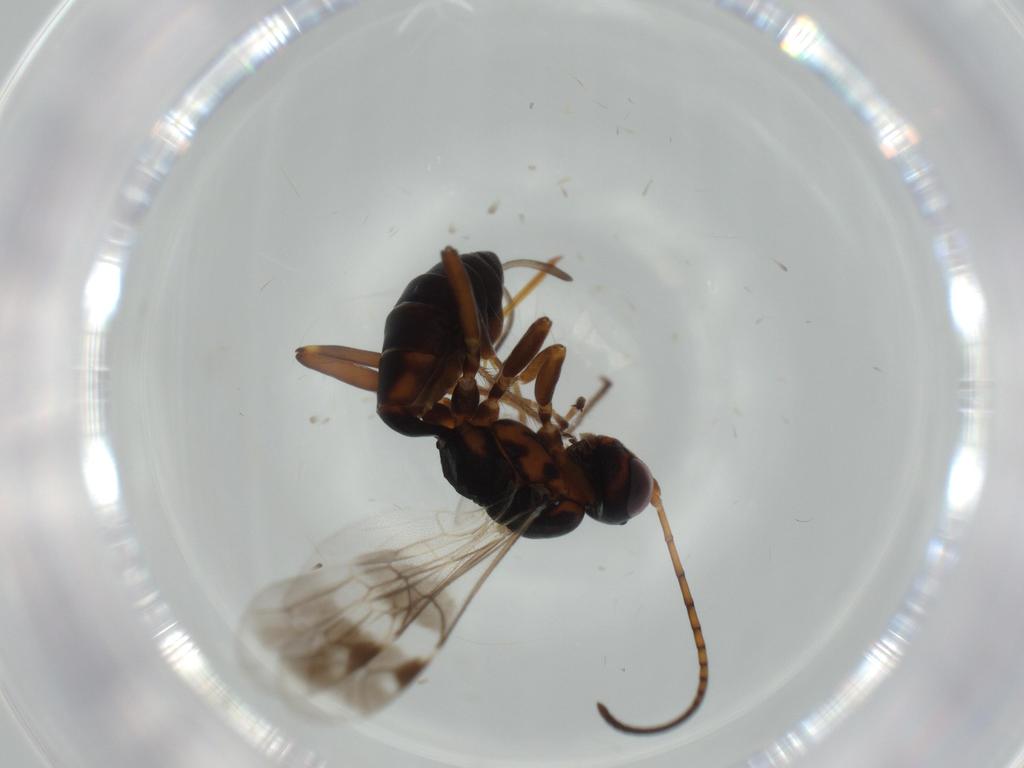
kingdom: Animalia
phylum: Arthropoda
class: Insecta
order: Hymenoptera
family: Ichneumonidae
